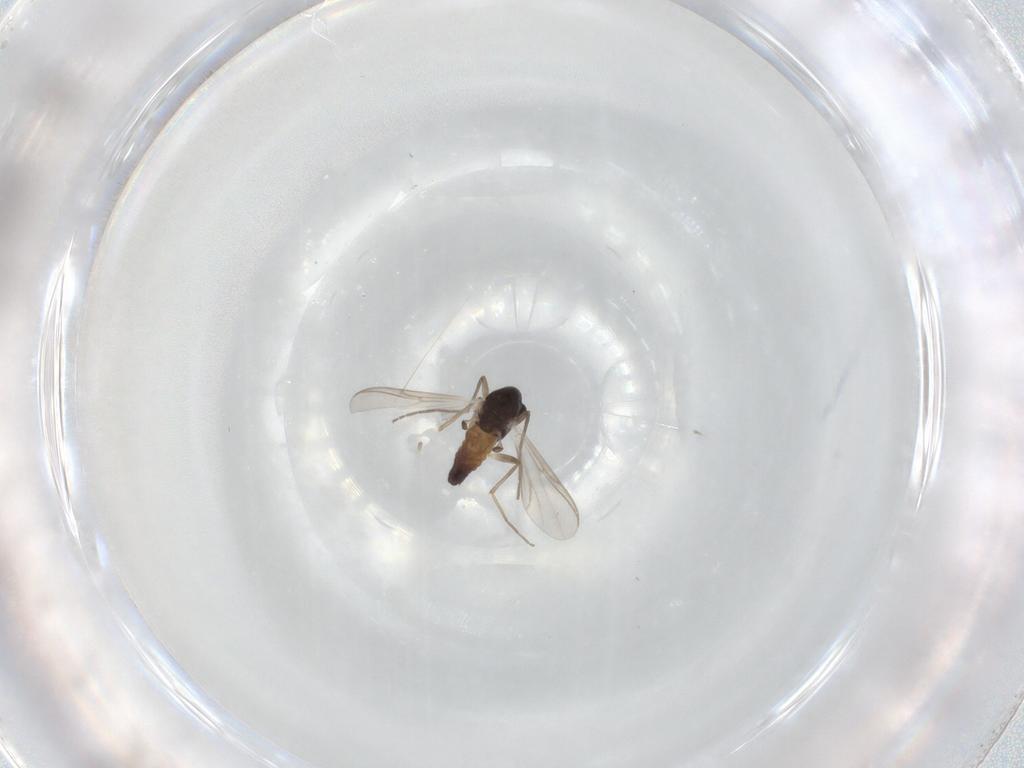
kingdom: Animalia
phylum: Arthropoda
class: Insecta
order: Diptera
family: Chironomidae
